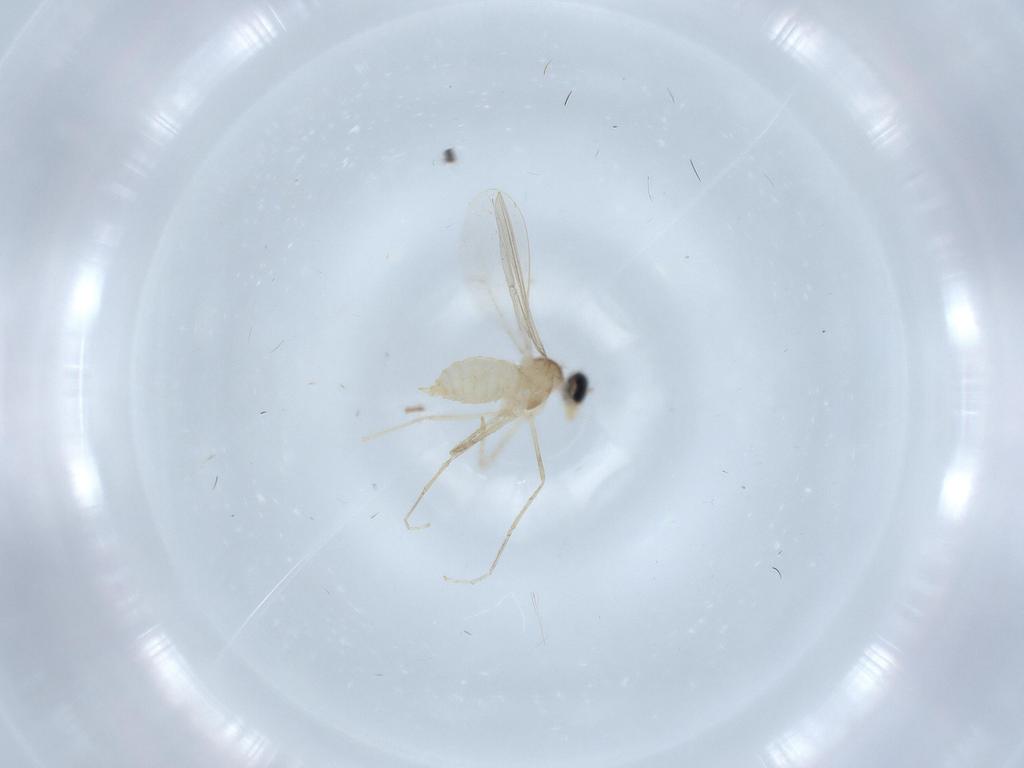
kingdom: Animalia
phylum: Arthropoda
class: Insecta
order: Diptera
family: Cecidomyiidae
